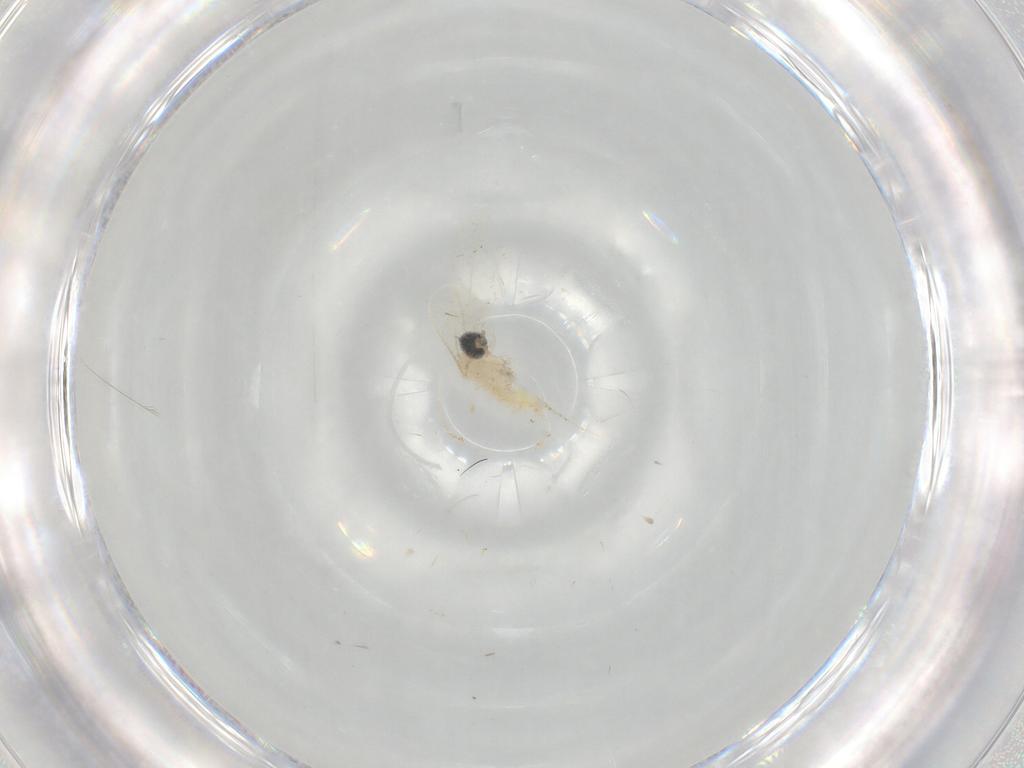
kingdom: Animalia
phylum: Arthropoda
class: Insecta
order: Diptera
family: Cecidomyiidae
